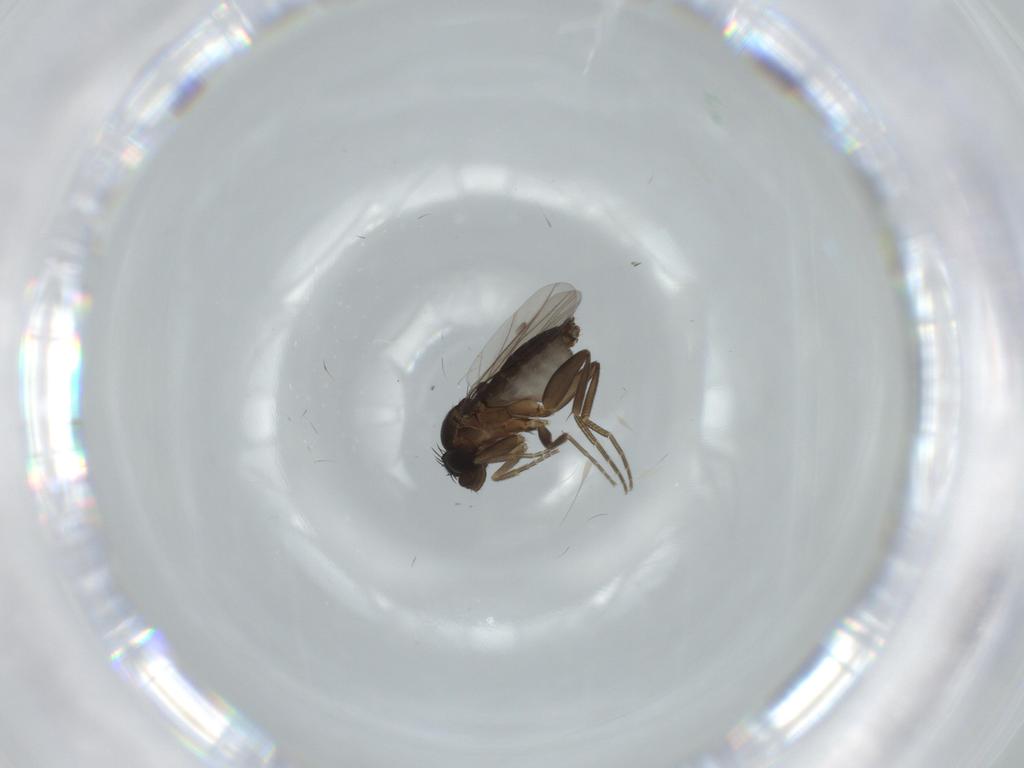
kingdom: Animalia
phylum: Arthropoda
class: Insecta
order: Diptera
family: Phoridae
